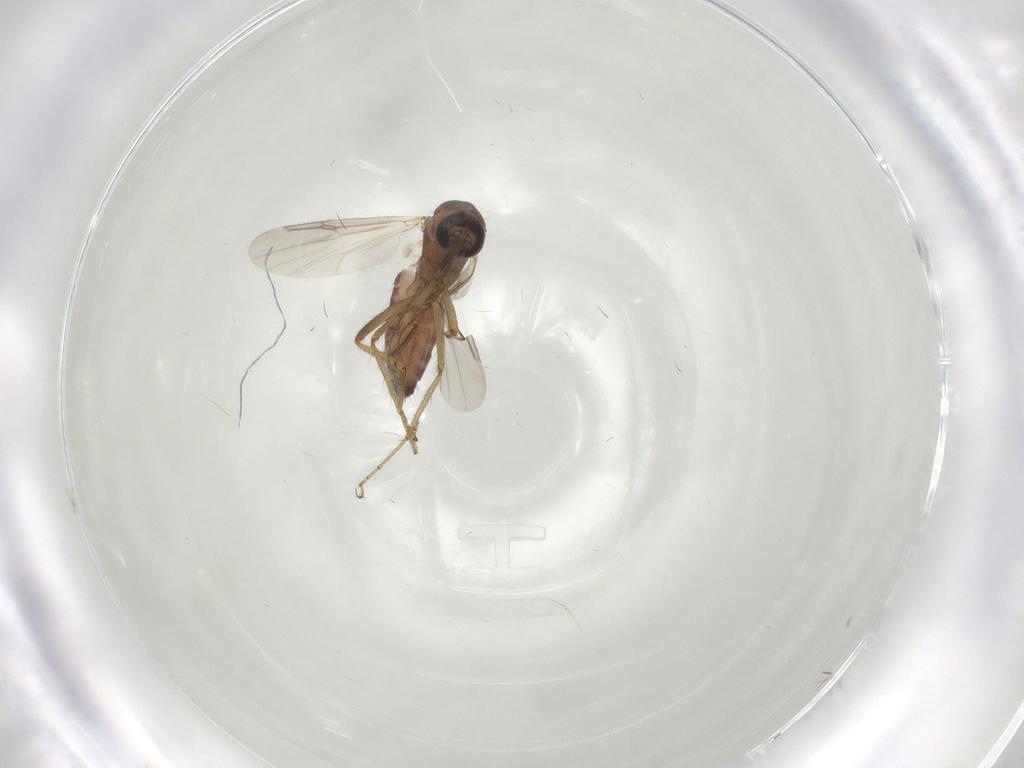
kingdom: Animalia
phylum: Arthropoda
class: Insecta
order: Diptera
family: Ceratopogonidae
